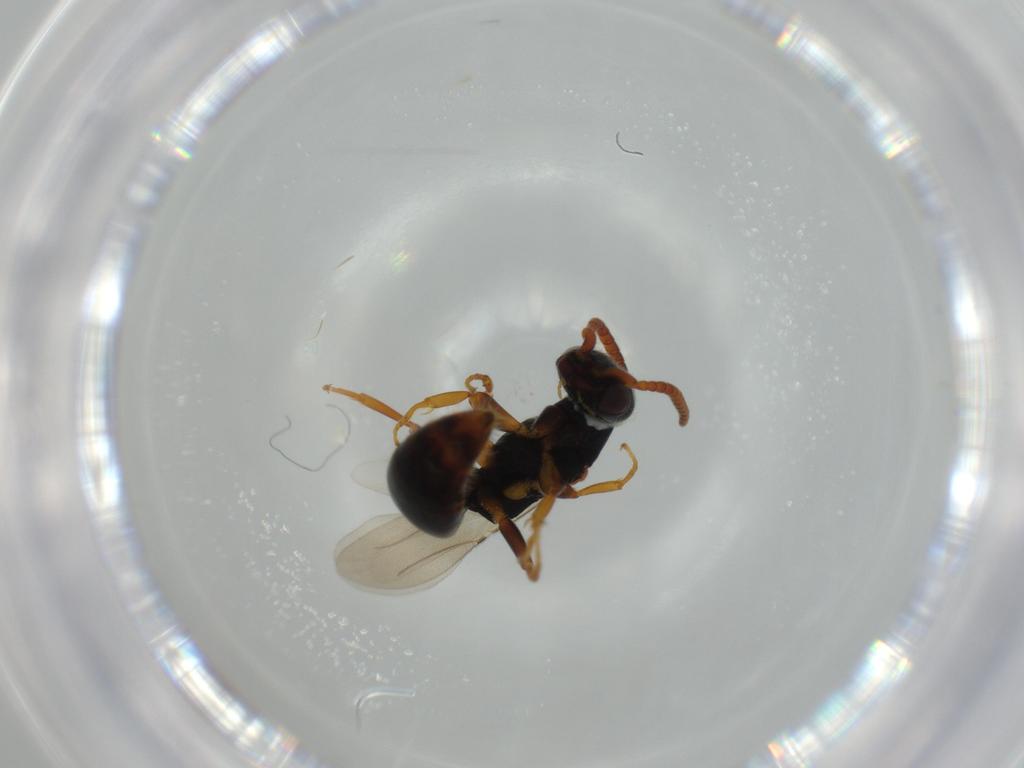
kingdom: Animalia
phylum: Arthropoda
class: Insecta
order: Hymenoptera
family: Bethylidae
